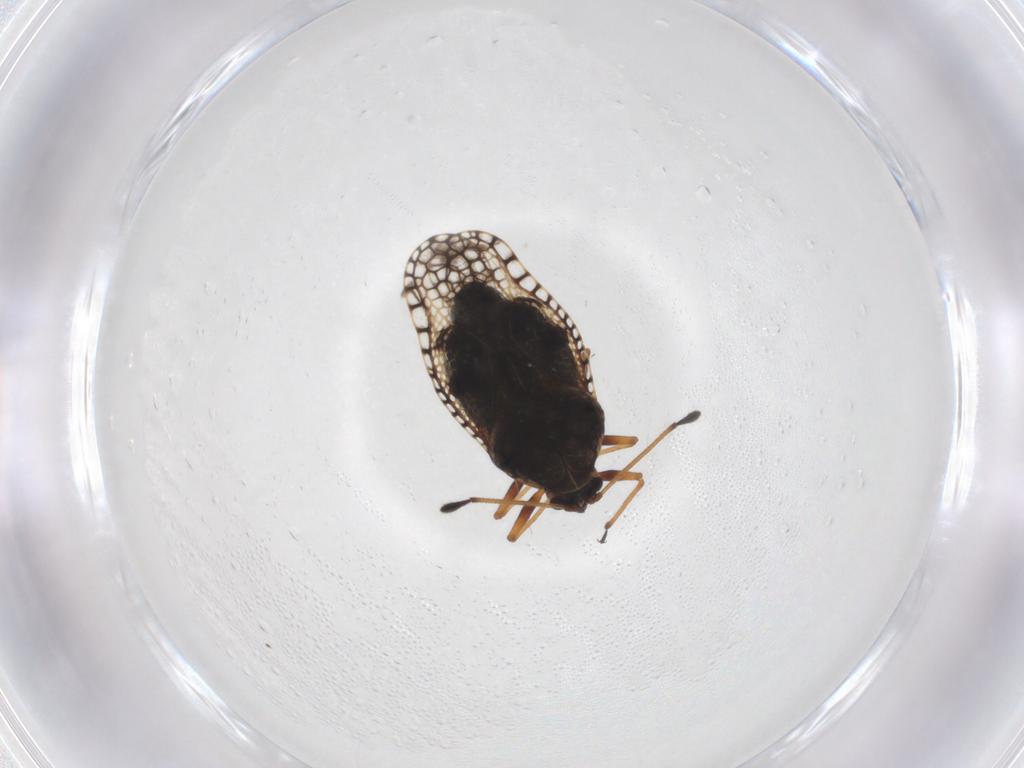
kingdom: Animalia
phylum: Arthropoda
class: Insecta
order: Hemiptera
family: Tingidae
